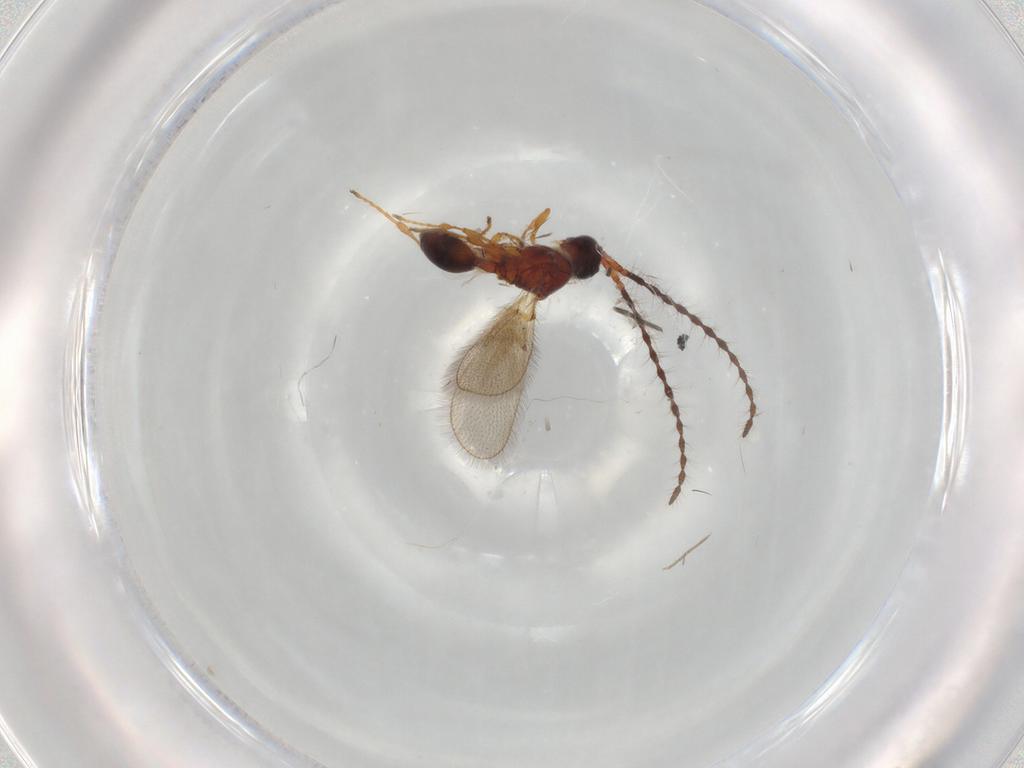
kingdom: Animalia
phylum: Arthropoda
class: Insecta
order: Hymenoptera
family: Diapriidae
